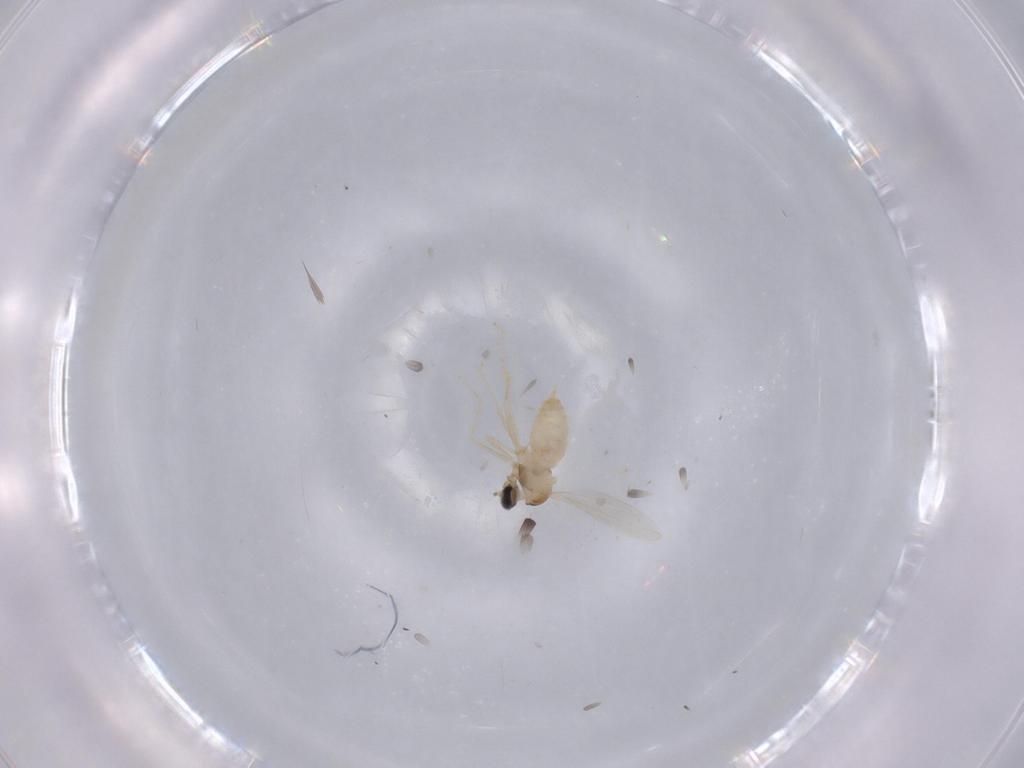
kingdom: Animalia
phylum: Arthropoda
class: Insecta
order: Diptera
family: Cecidomyiidae
